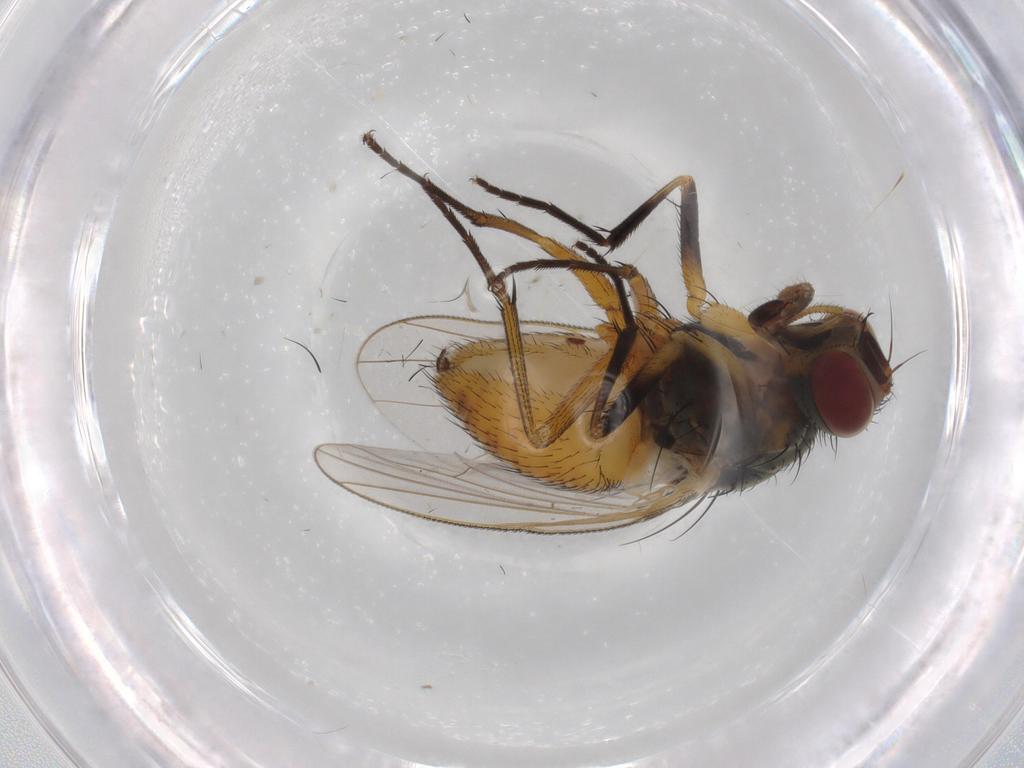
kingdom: Animalia
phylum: Arthropoda
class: Insecta
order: Diptera
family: Muscidae
